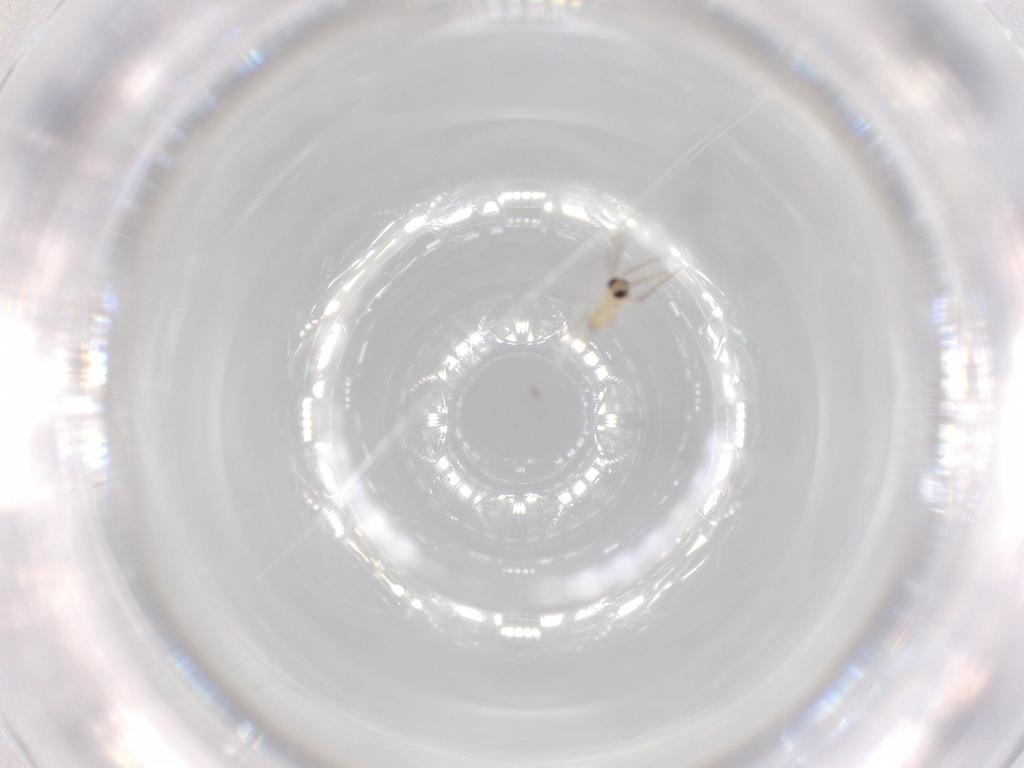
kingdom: Animalia
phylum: Arthropoda
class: Insecta
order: Diptera
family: Cecidomyiidae
